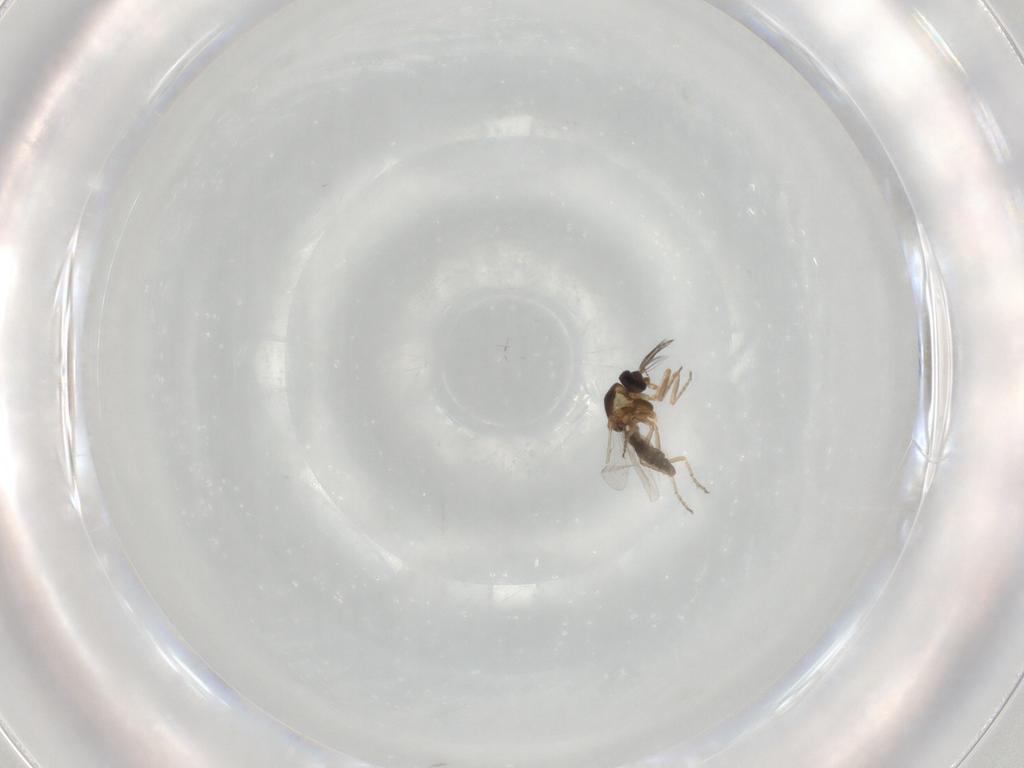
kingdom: Animalia
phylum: Arthropoda
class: Insecta
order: Diptera
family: Ceratopogonidae
